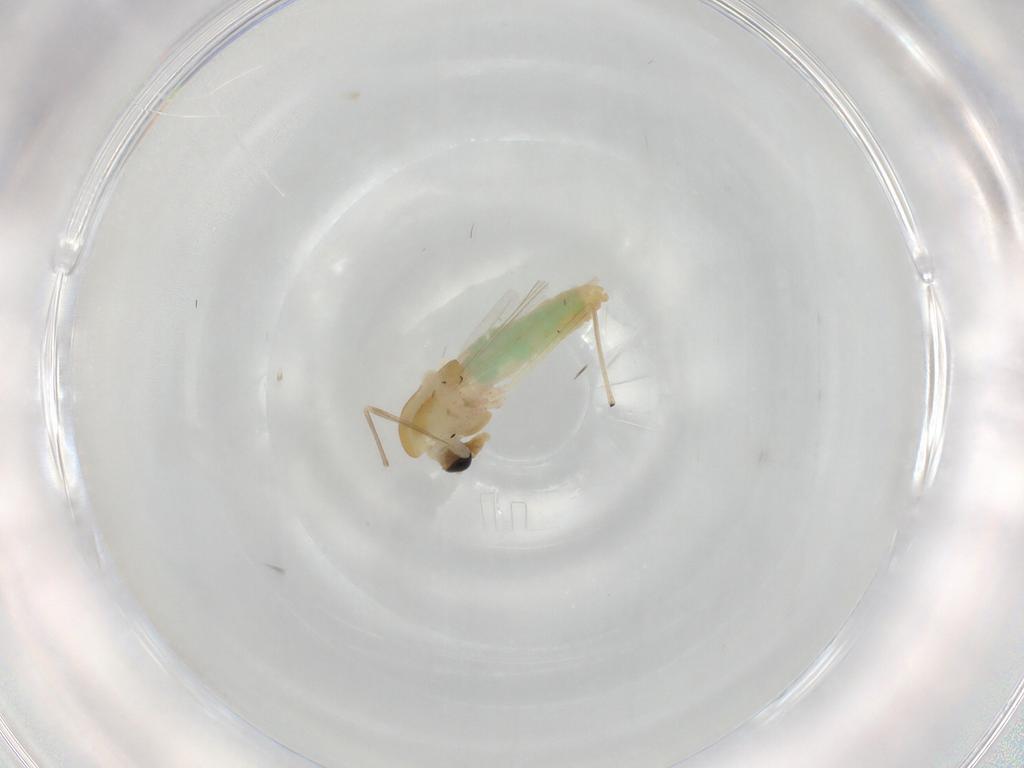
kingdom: Animalia
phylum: Arthropoda
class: Insecta
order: Diptera
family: Chironomidae
